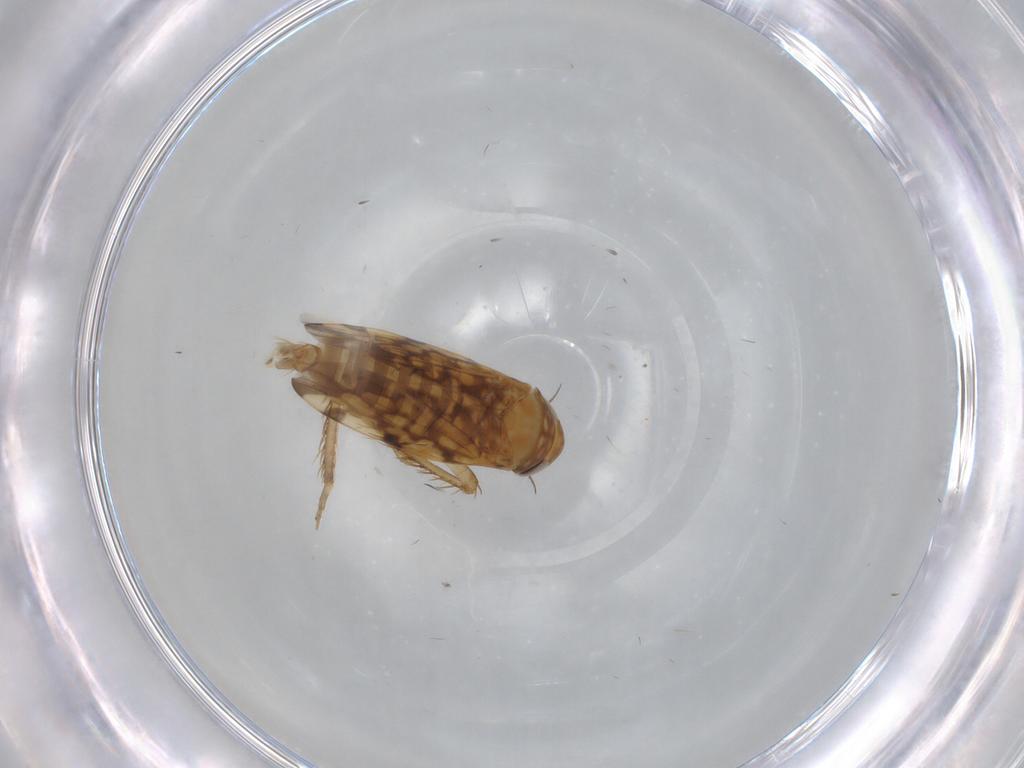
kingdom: Animalia
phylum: Arthropoda
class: Insecta
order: Hemiptera
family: Cicadellidae
